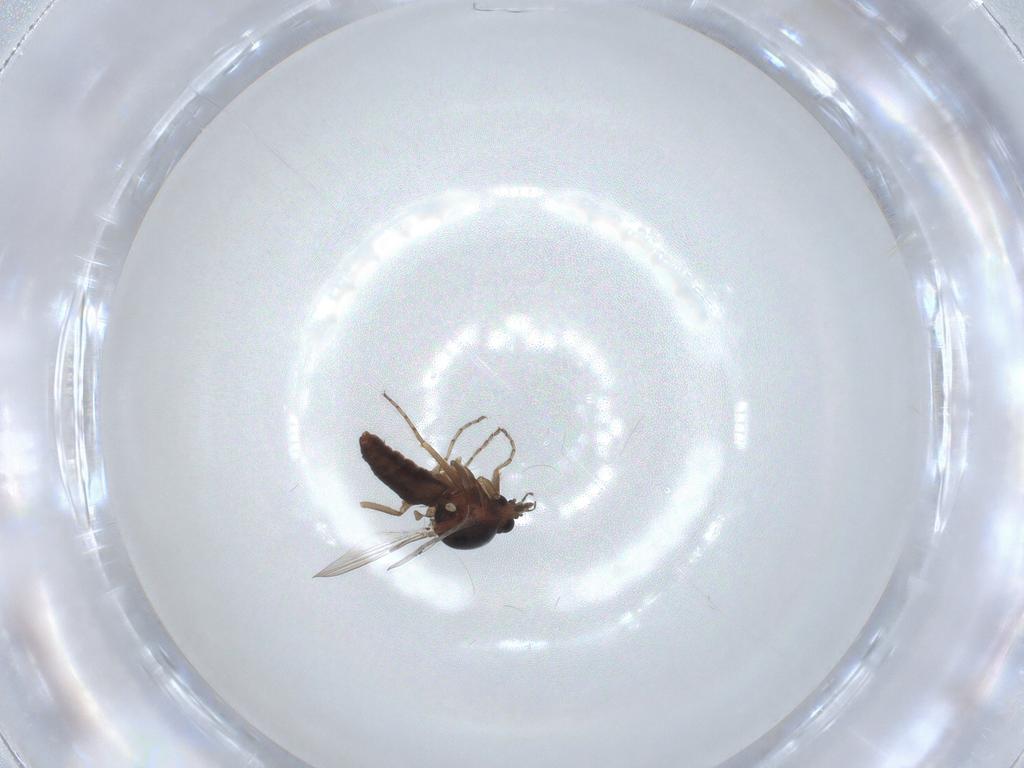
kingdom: Animalia
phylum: Arthropoda
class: Insecta
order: Diptera
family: Ceratopogonidae
